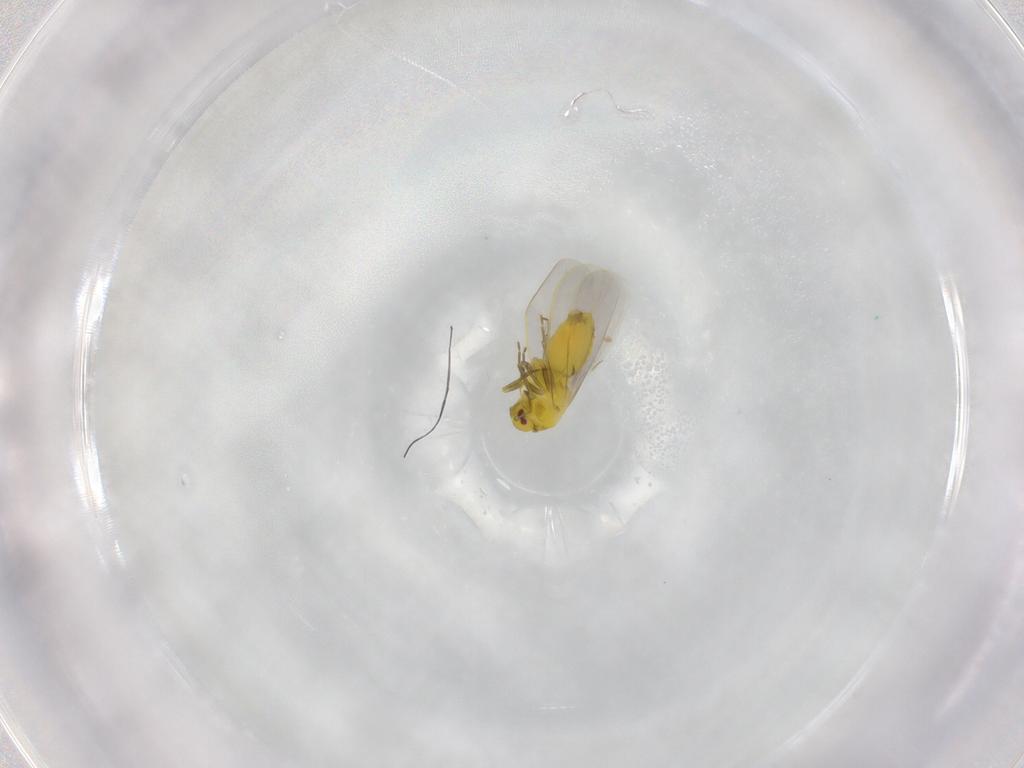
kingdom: Animalia
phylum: Arthropoda
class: Insecta
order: Hemiptera
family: Aleyrodidae
